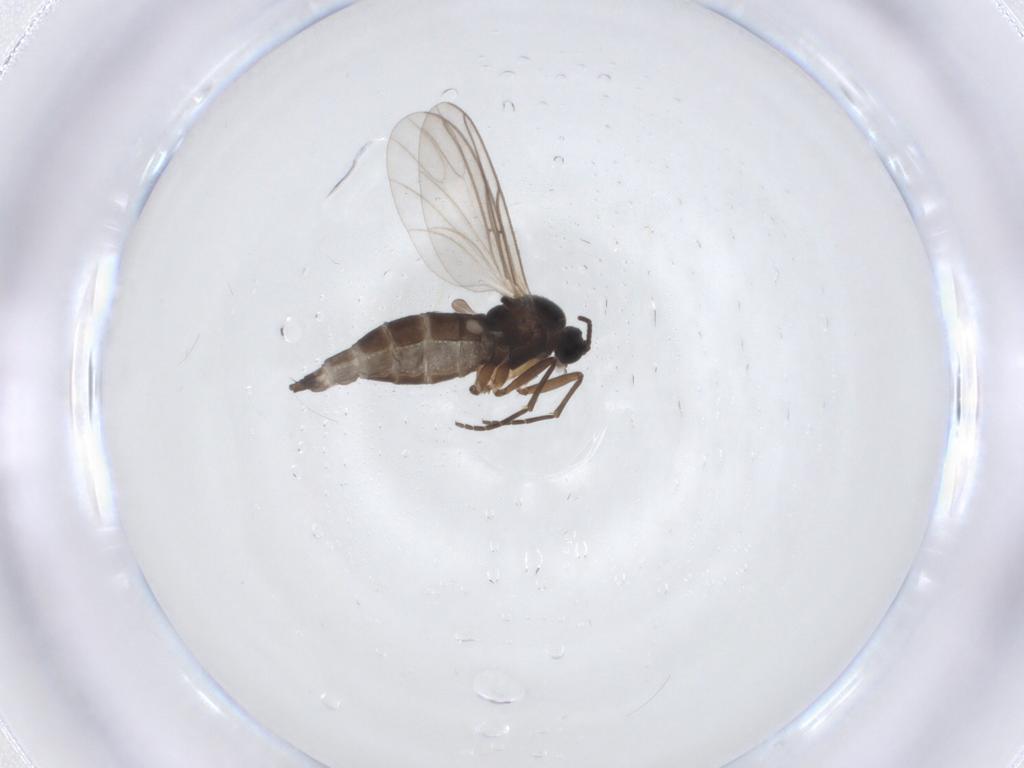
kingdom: Animalia
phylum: Arthropoda
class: Insecta
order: Diptera
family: Sciaridae
